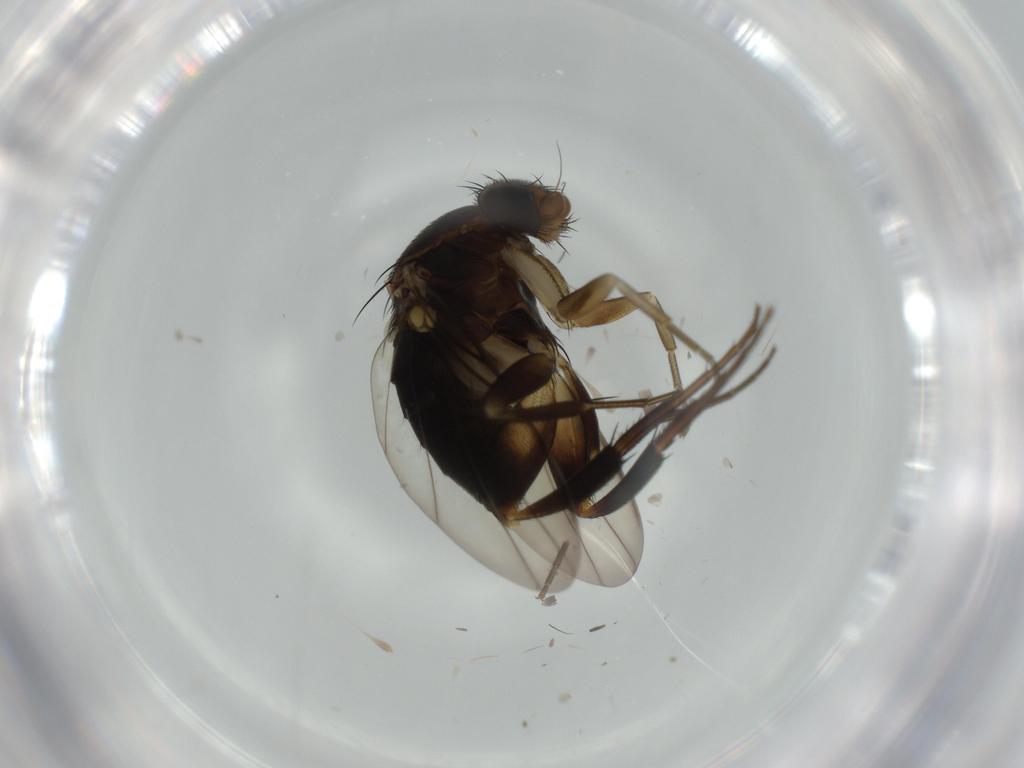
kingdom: Animalia
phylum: Arthropoda
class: Insecta
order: Diptera
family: Phoridae
